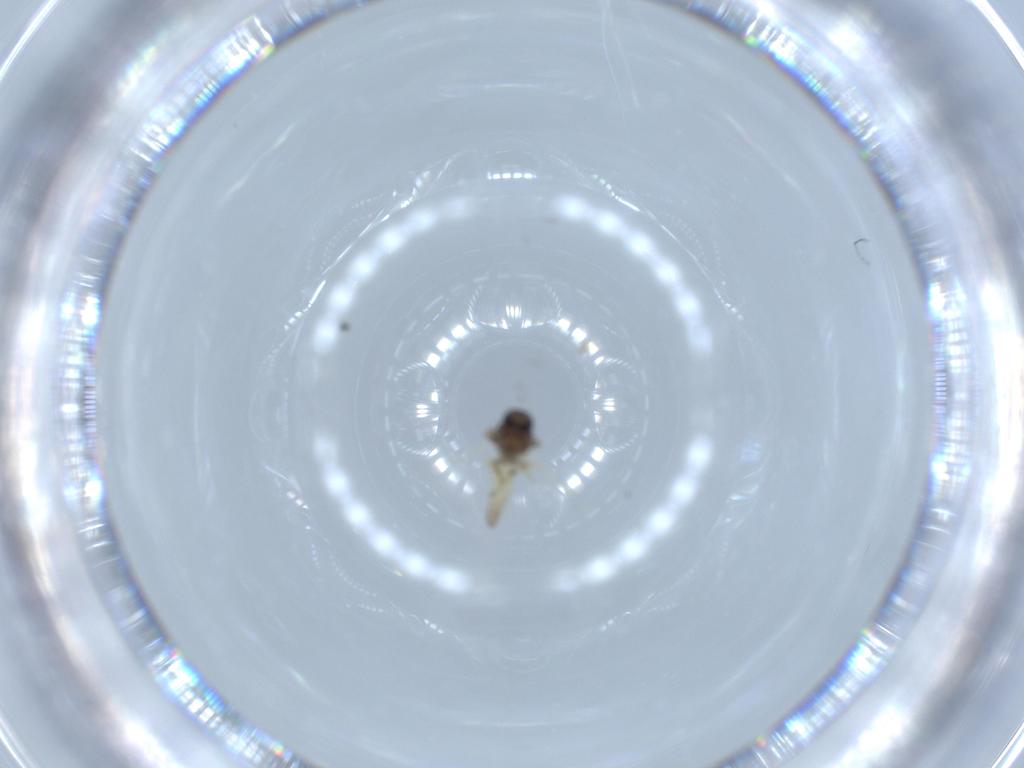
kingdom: Animalia
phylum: Arthropoda
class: Insecta
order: Diptera
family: Ceratopogonidae
